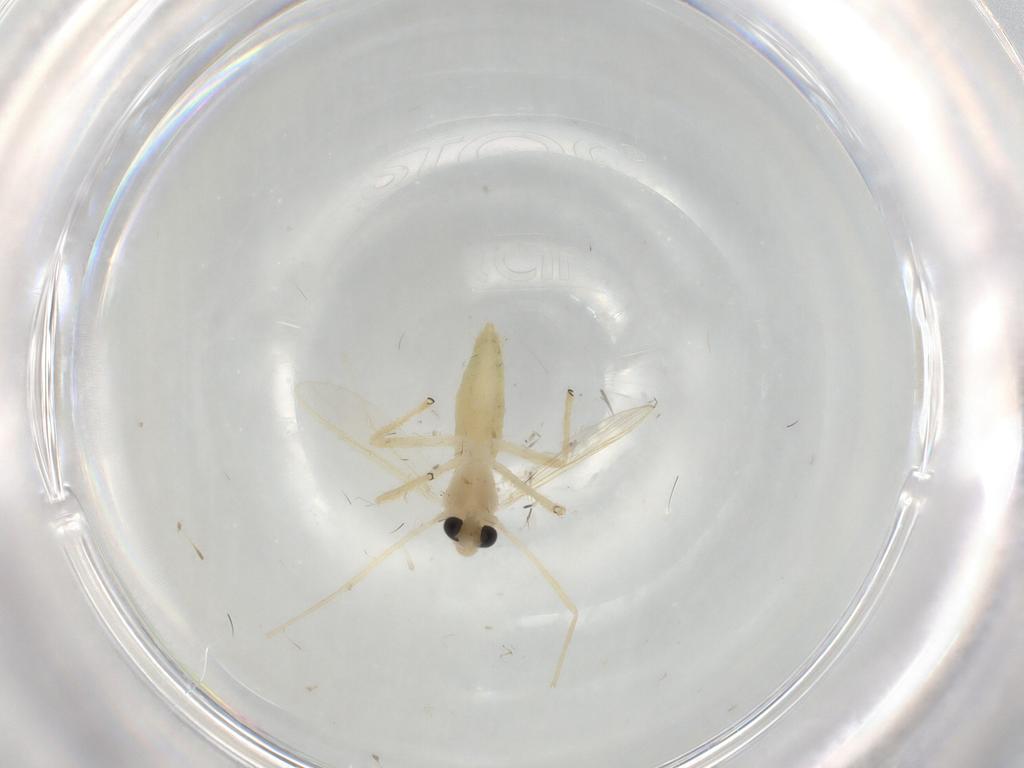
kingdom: Animalia
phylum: Arthropoda
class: Insecta
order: Diptera
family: Chironomidae
